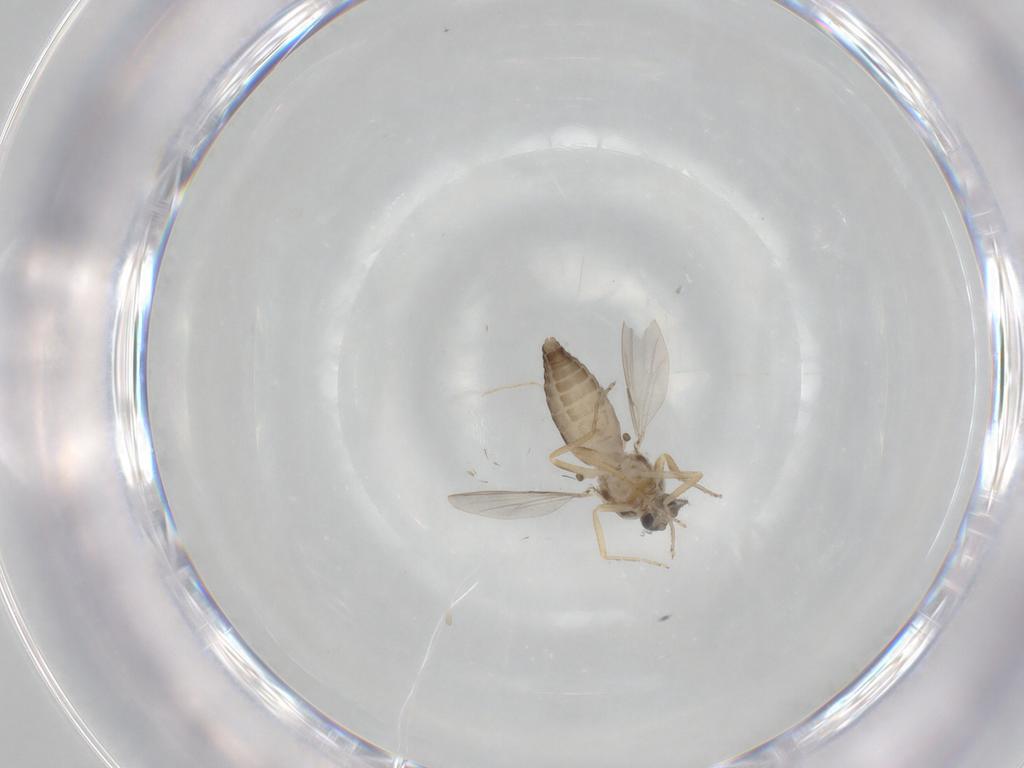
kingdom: Animalia
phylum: Arthropoda
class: Insecta
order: Diptera
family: Ceratopogonidae
